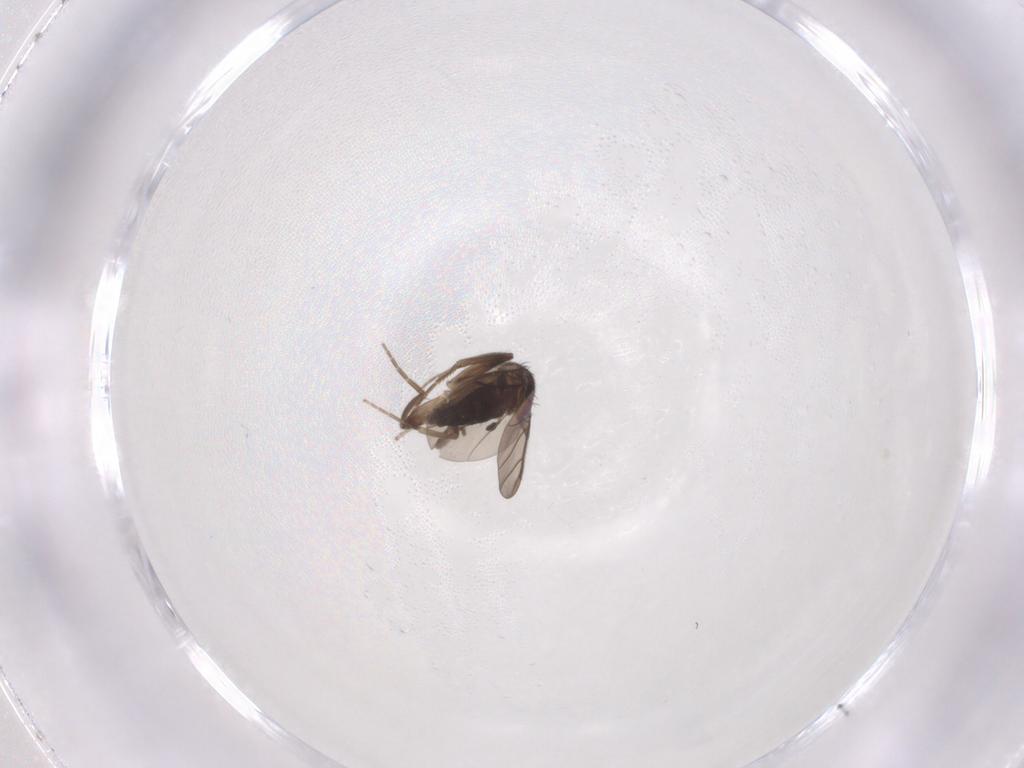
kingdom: Animalia
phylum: Arthropoda
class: Insecta
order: Diptera
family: Phoridae
